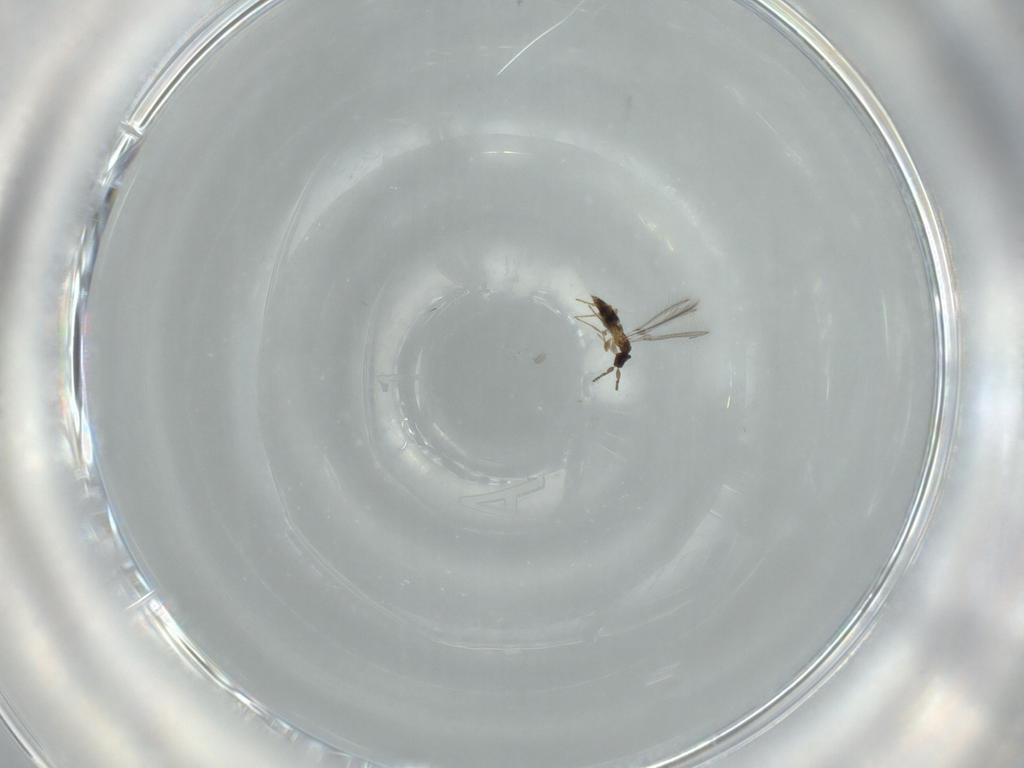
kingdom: Animalia
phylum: Arthropoda
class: Insecta
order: Hymenoptera
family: Mymaridae
